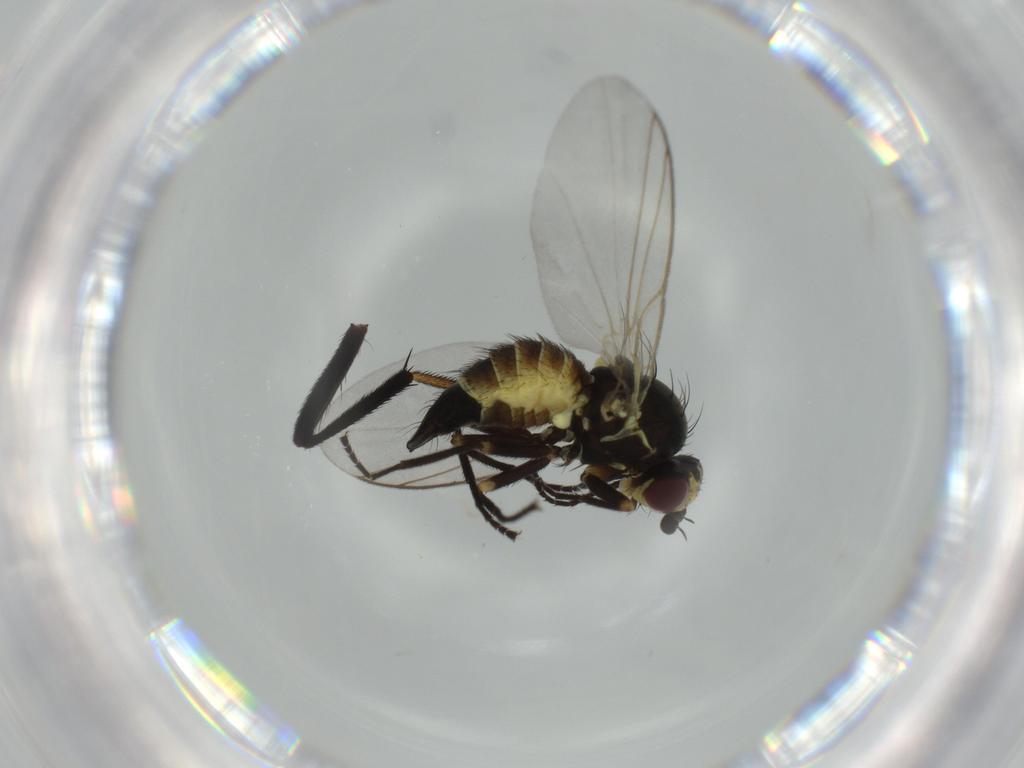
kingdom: Animalia
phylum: Arthropoda
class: Insecta
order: Diptera
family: Agromyzidae
